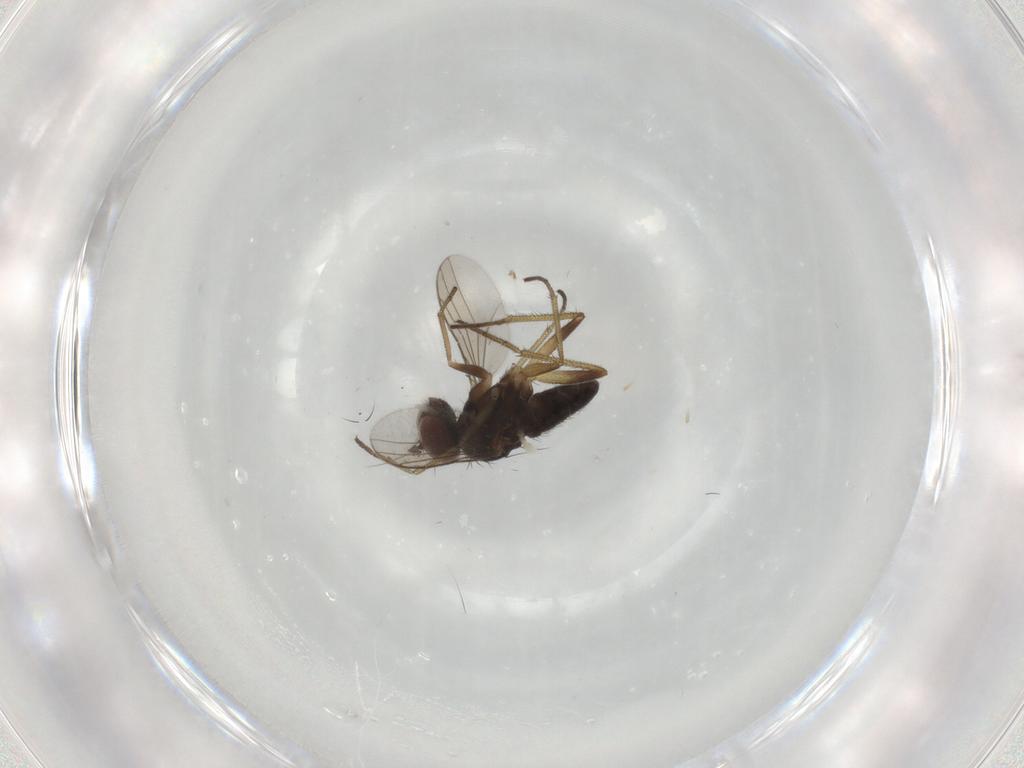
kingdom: Animalia
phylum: Arthropoda
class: Insecta
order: Diptera
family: Dolichopodidae
